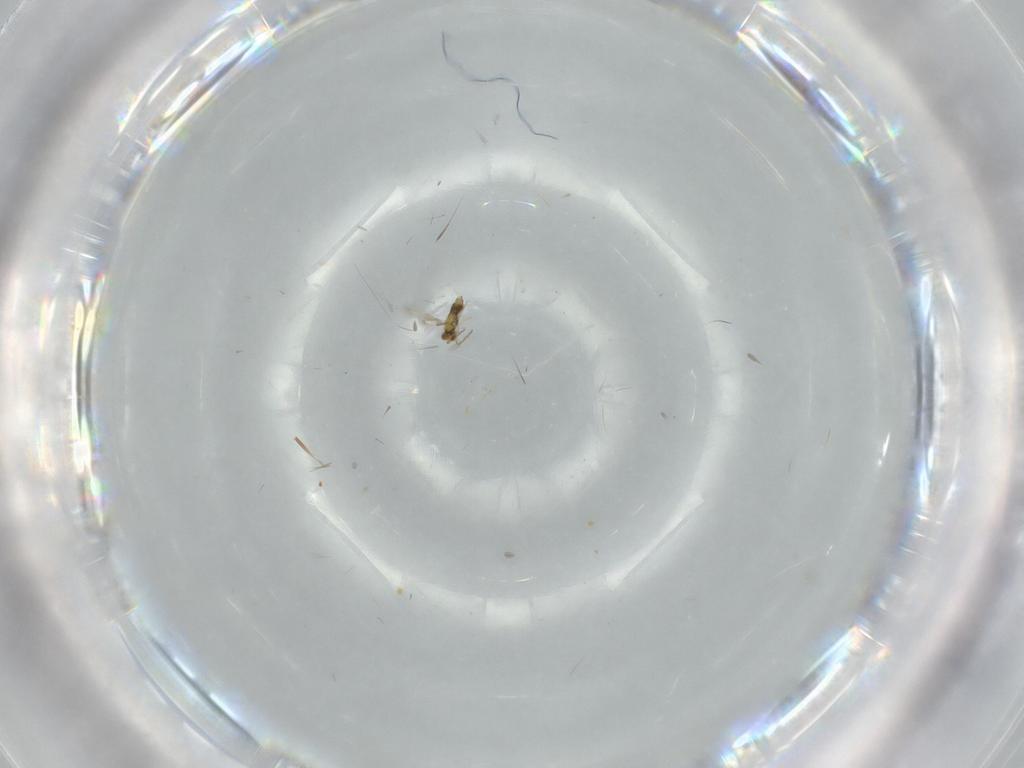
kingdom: Animalia
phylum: Arthropoda
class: Insecta
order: Hymenoptera
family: Aphelinidae
